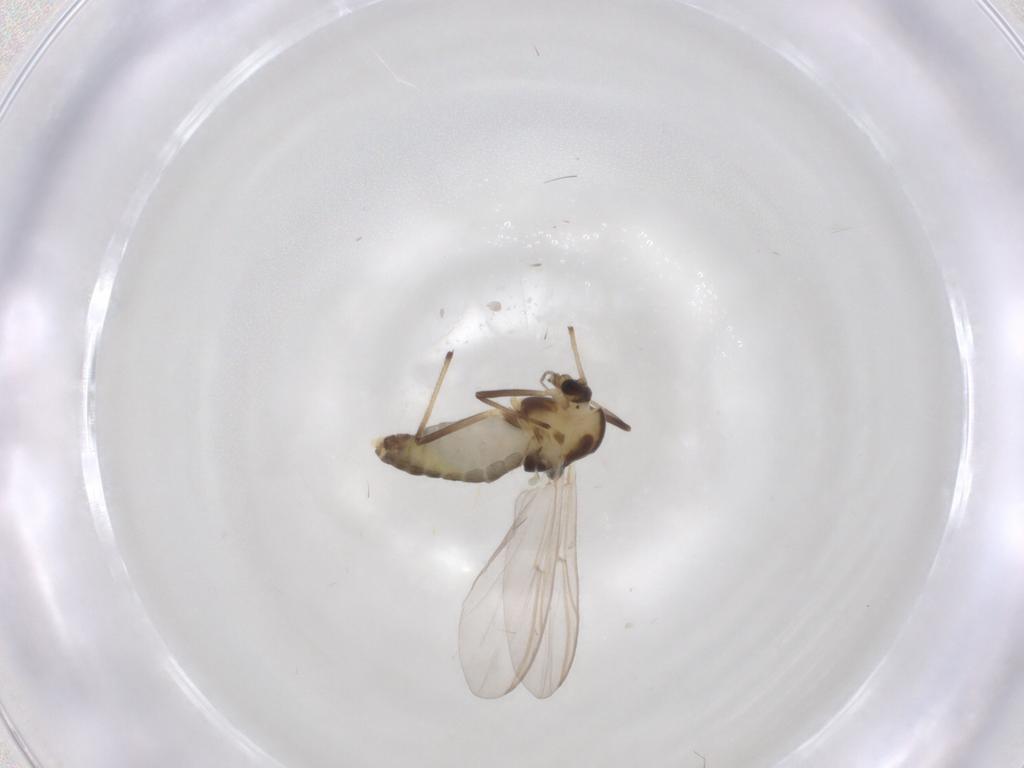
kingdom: Animalia
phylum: Arthropoda
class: Insecta
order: Diptera
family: Chironomidae
